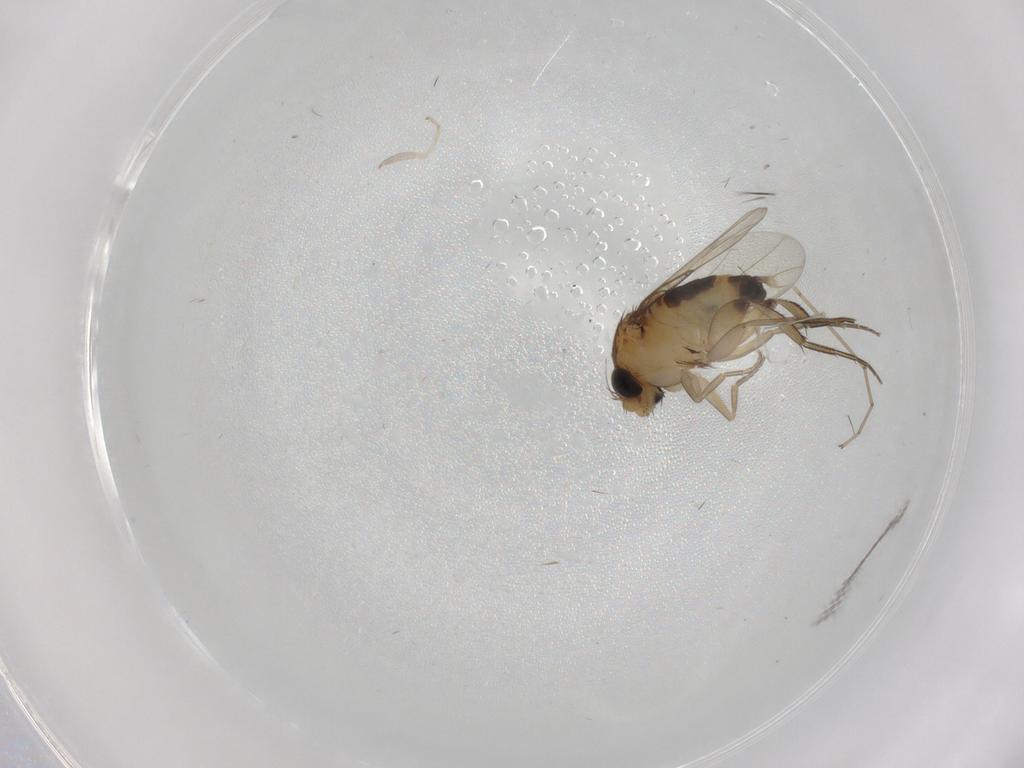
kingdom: Animalia
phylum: Arthropoda
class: Insecta
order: Diptera
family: Phoridae
